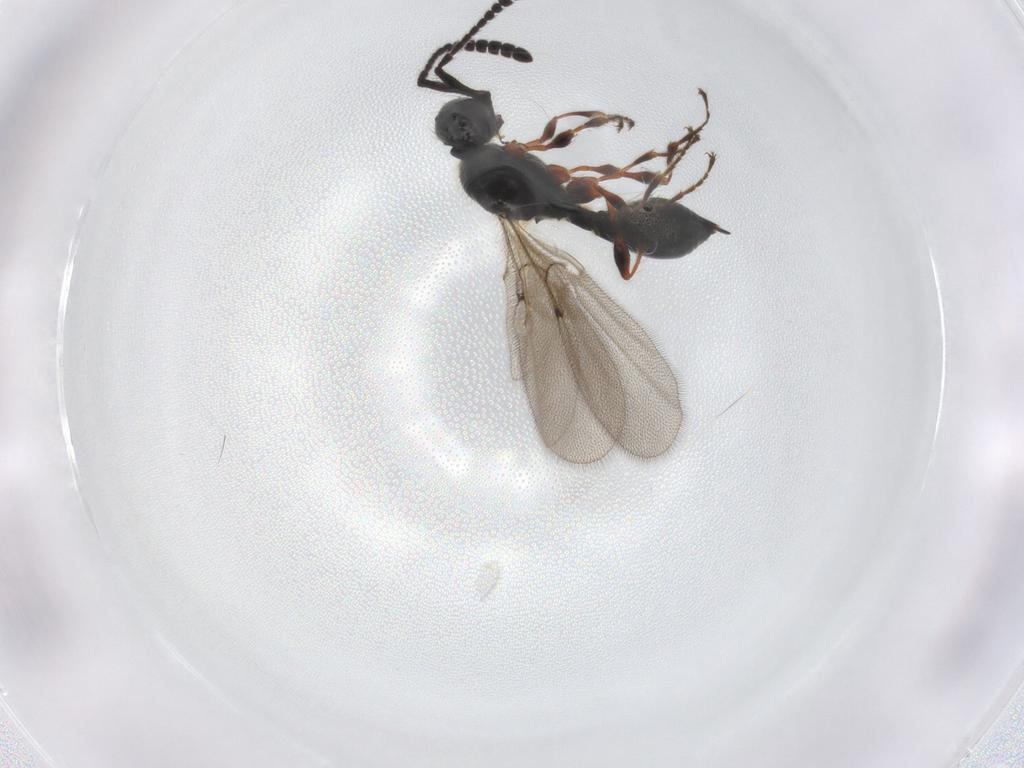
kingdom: Animalia
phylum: Arthropoda
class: Insecta
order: Hymenoptera
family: Diapriidae
